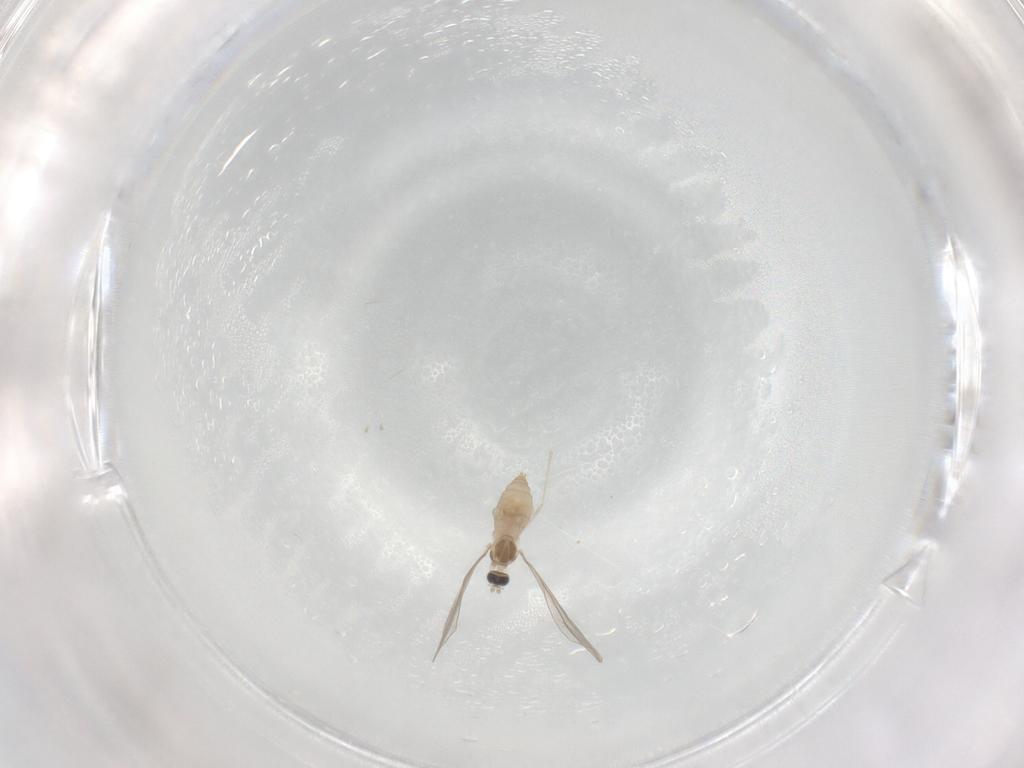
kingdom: Animalia
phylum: Arthropoda
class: Insecta
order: Diptera
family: Cecidomyiidae
